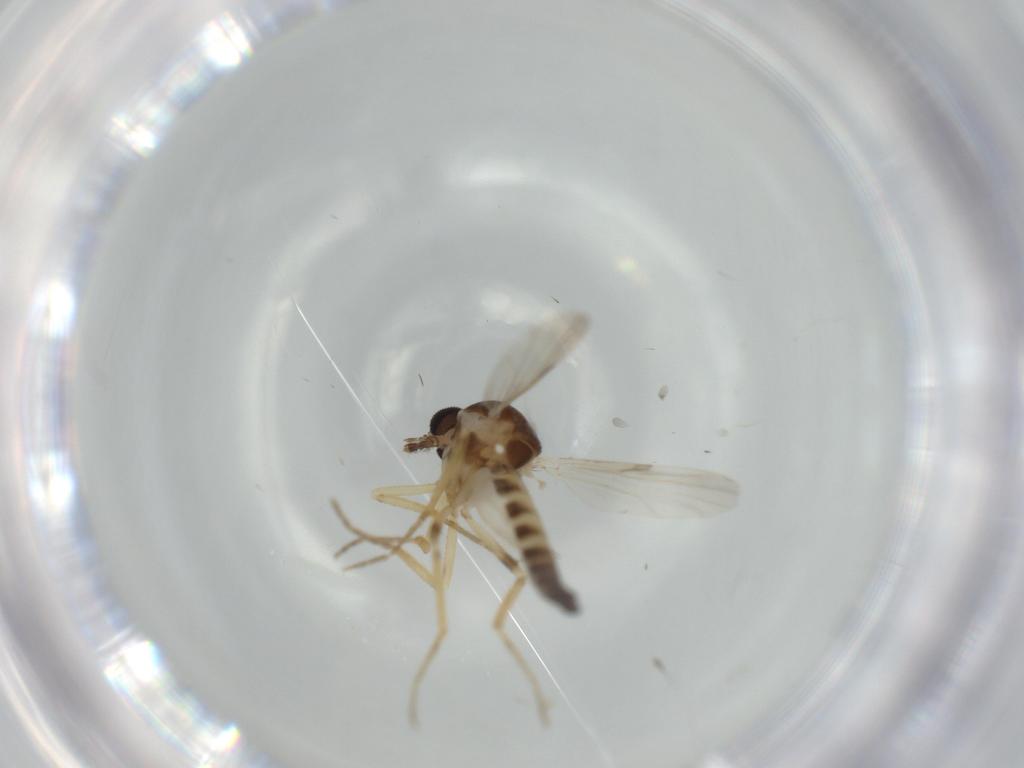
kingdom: Animalia
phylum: Arthropoda
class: Insecta
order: Diptera
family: Ceratopogonidae
